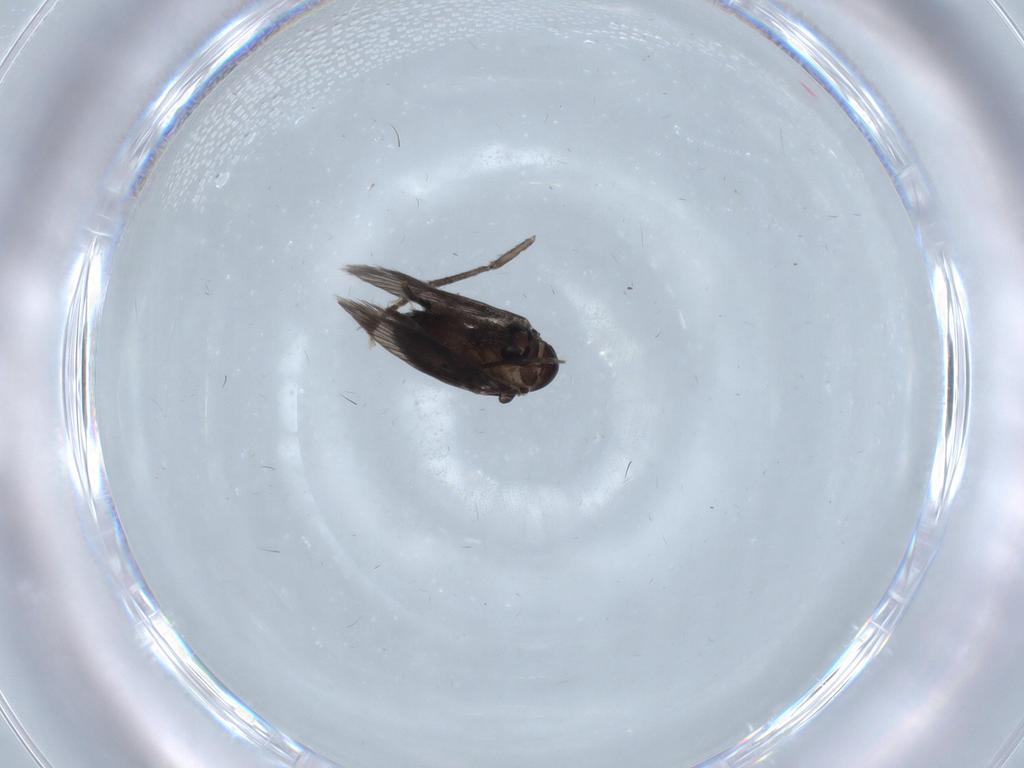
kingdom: Animalia
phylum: Arthropoda
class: Insecta
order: Diptera
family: Psychodidae
